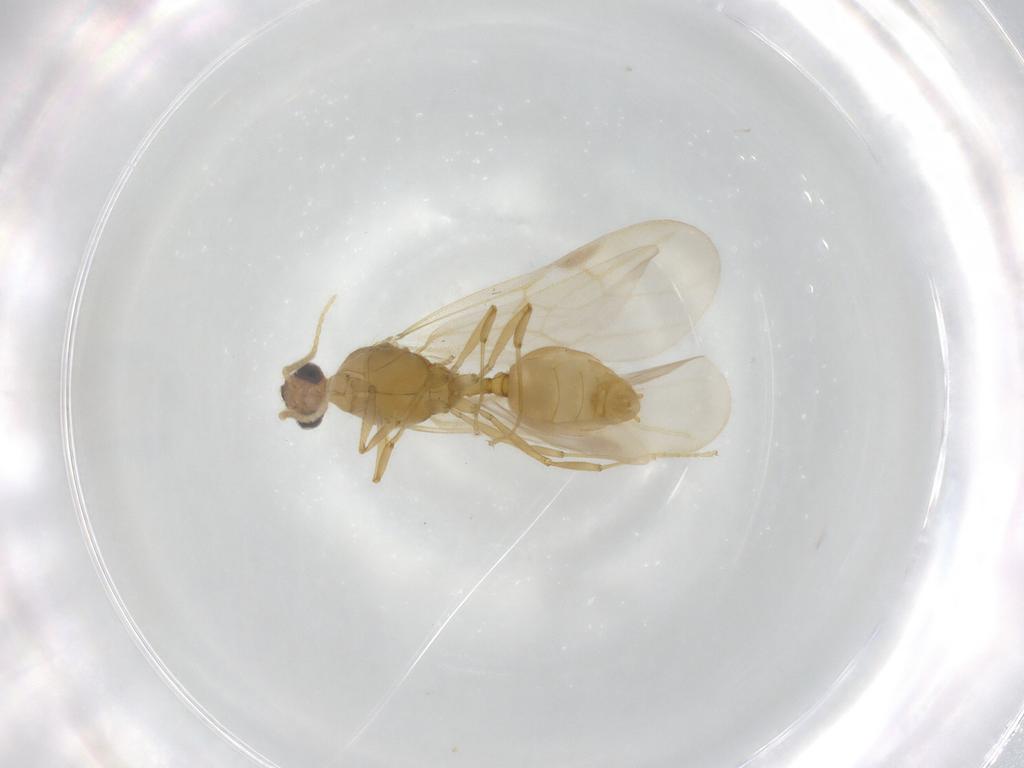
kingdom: Animalia
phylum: Arthropoda
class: Insecta
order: Hymenoptera
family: Formicidae
